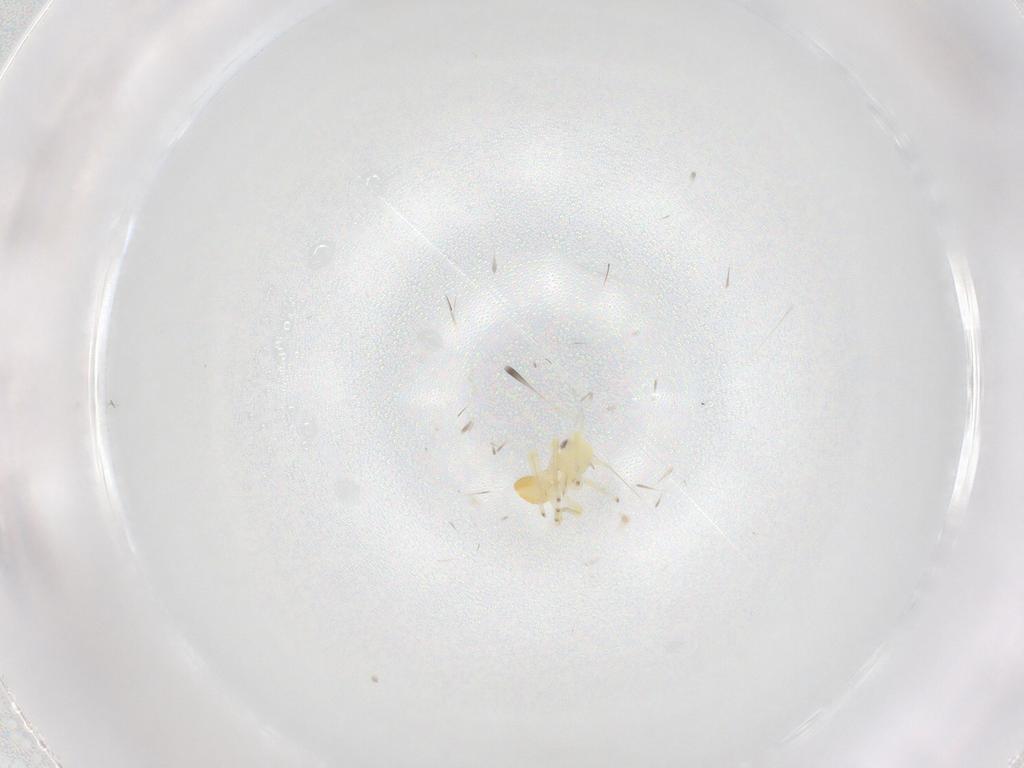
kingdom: Animalia
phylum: Arthropoda
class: Insecta
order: Hemiptera
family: Cicadellidae
